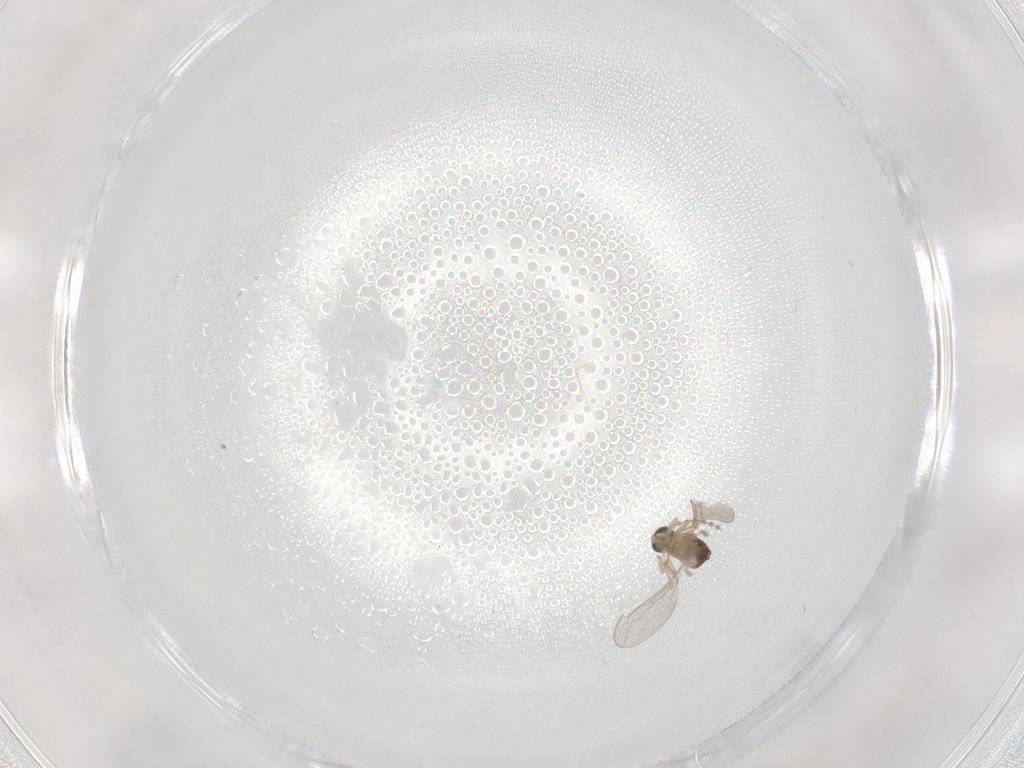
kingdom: Animalia
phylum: Arthropoda
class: Insecta
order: Diptera
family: Cecidomyiidae
